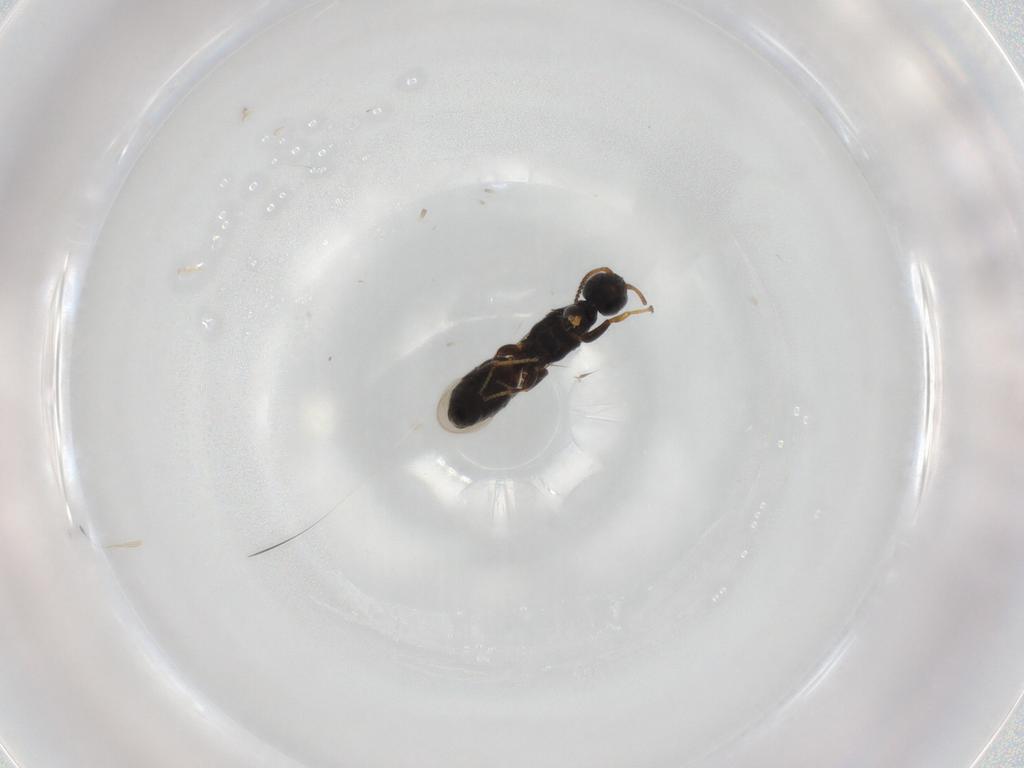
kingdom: Animalia
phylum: Arthropoda
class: Insecta
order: Hymenoptera
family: Bethylidae
